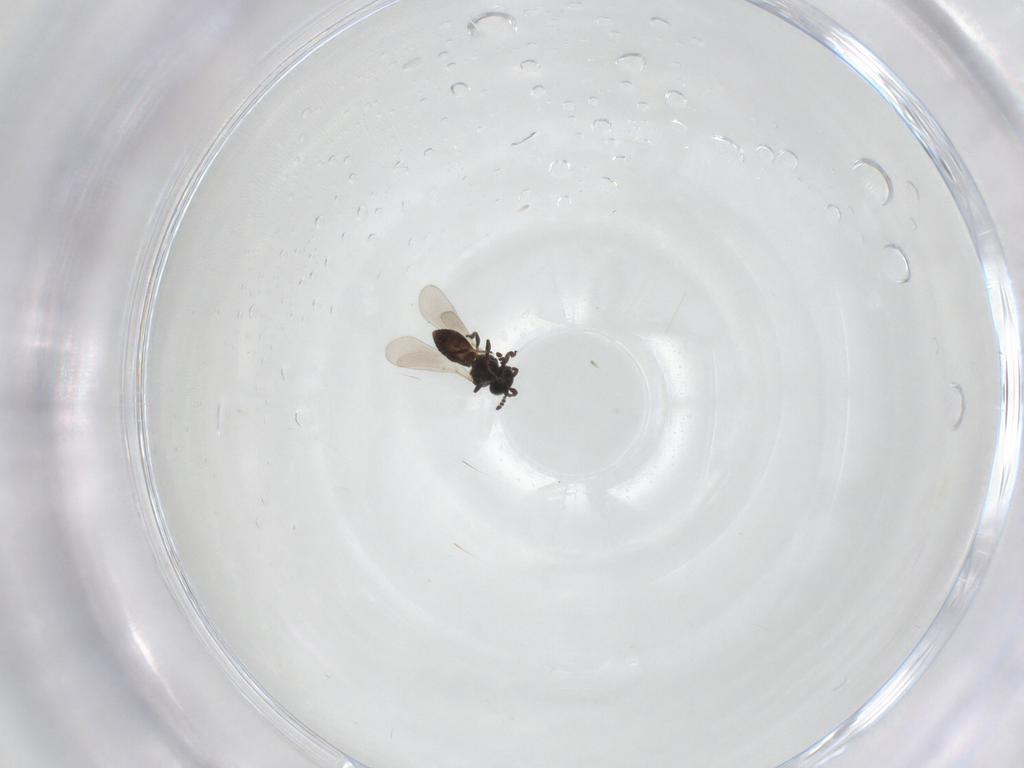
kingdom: Animalia
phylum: Arthropoda
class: Insecta
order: Hymenoptera
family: Platygastridae
